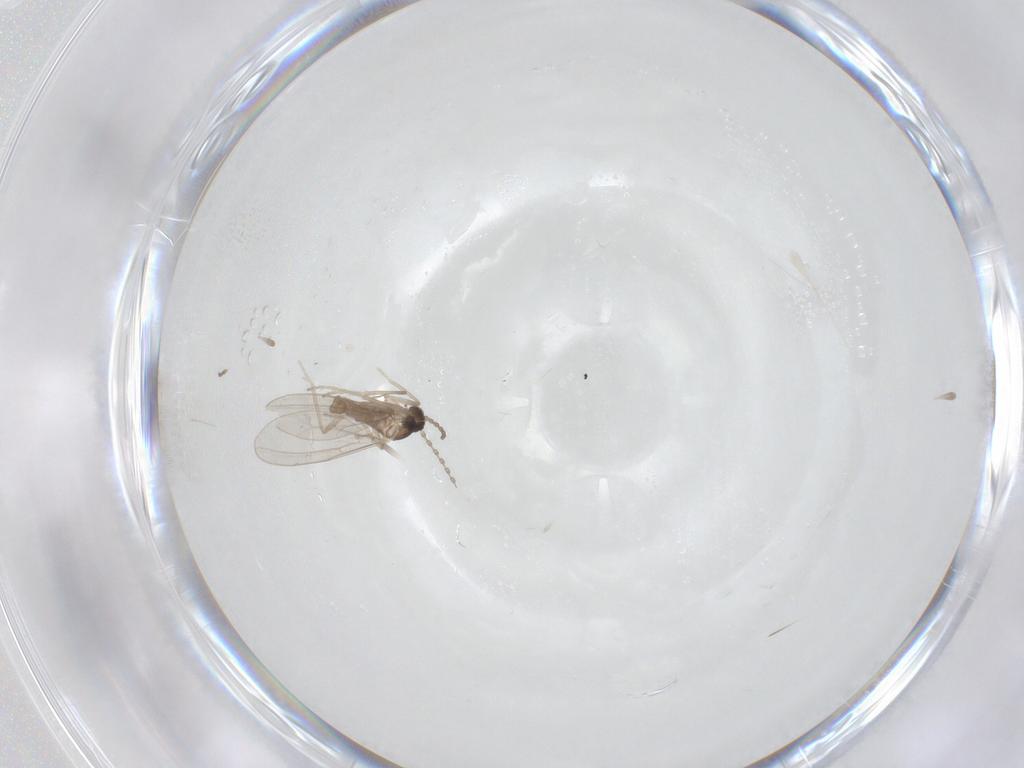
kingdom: Animalia
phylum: Arthropoda
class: Insecta
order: Diptera
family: Cecidomyiidae
